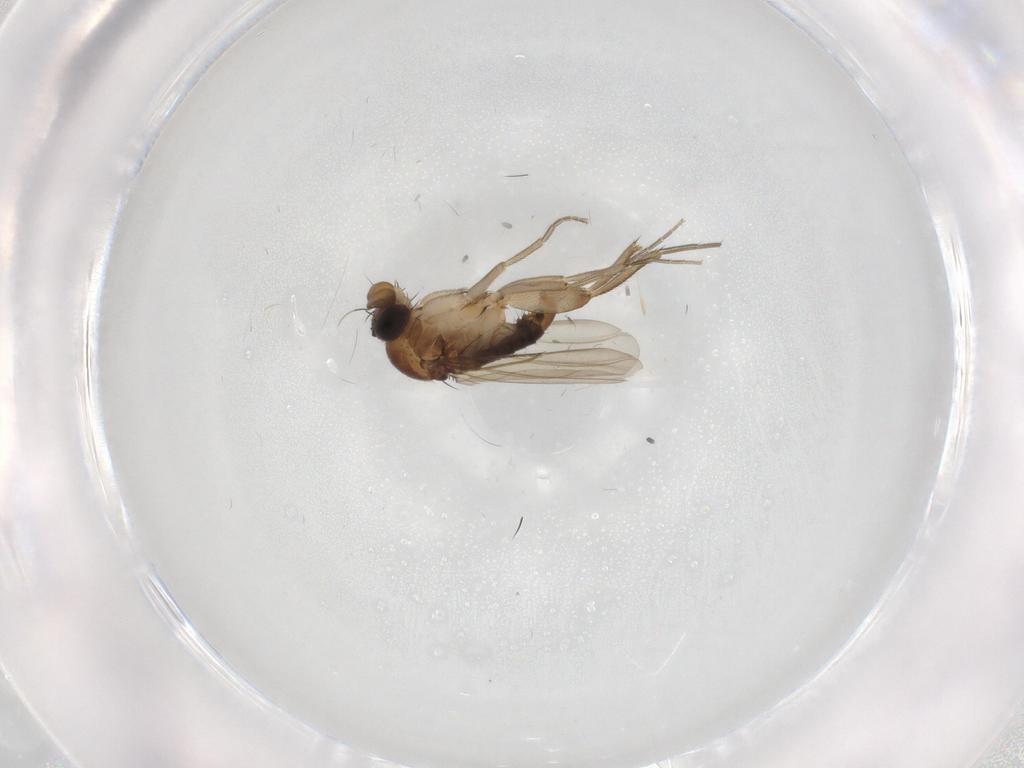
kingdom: Animalia
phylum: Arthropoda
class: Insecta
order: Diptera
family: Phoridae
